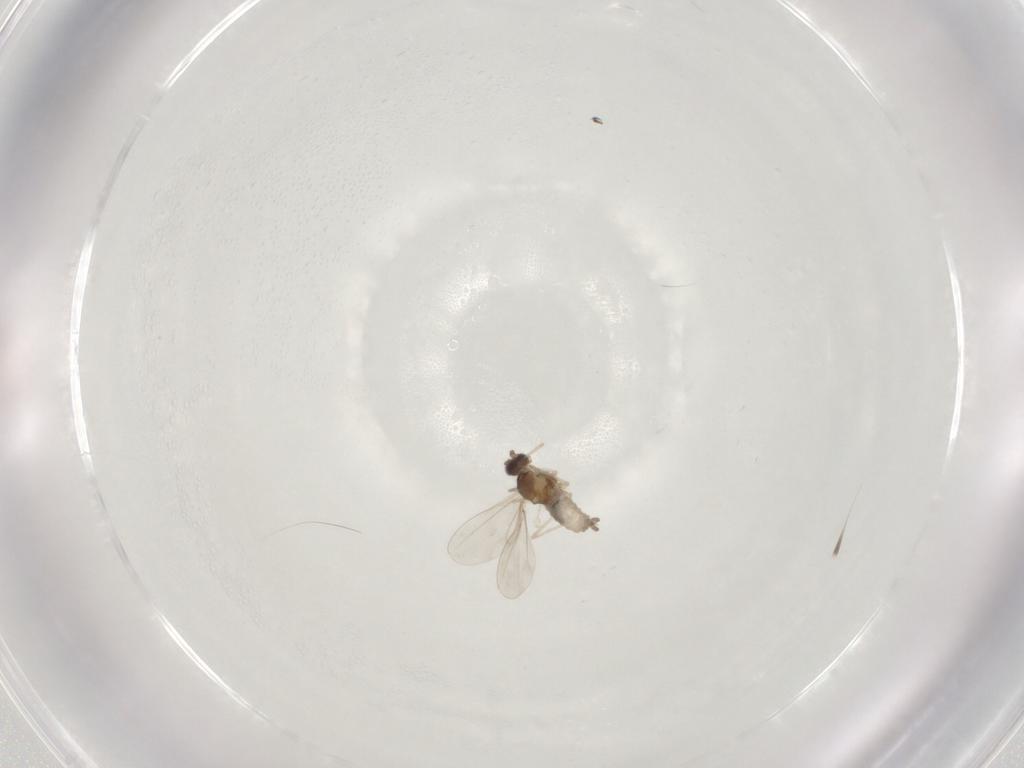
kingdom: Animalia
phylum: Arthropoda
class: Insecta
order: Diptera
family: Cecidomyiidae
